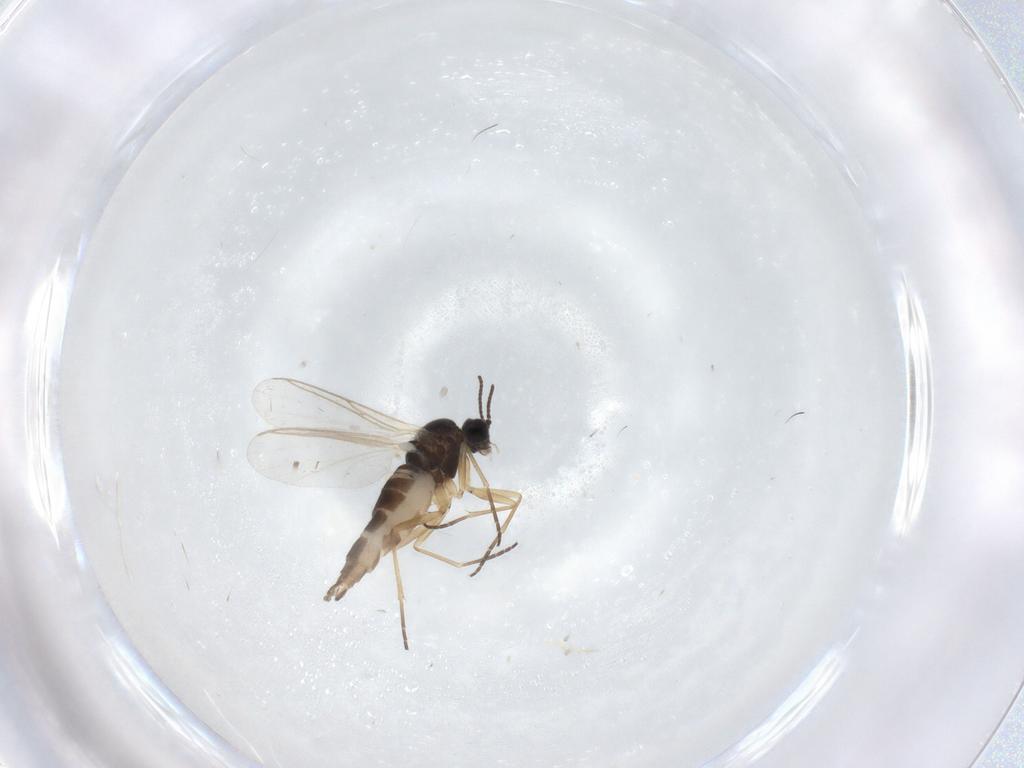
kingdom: Animalia
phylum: Arthropoda
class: Insecta
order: Diptera
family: Sciaridae
